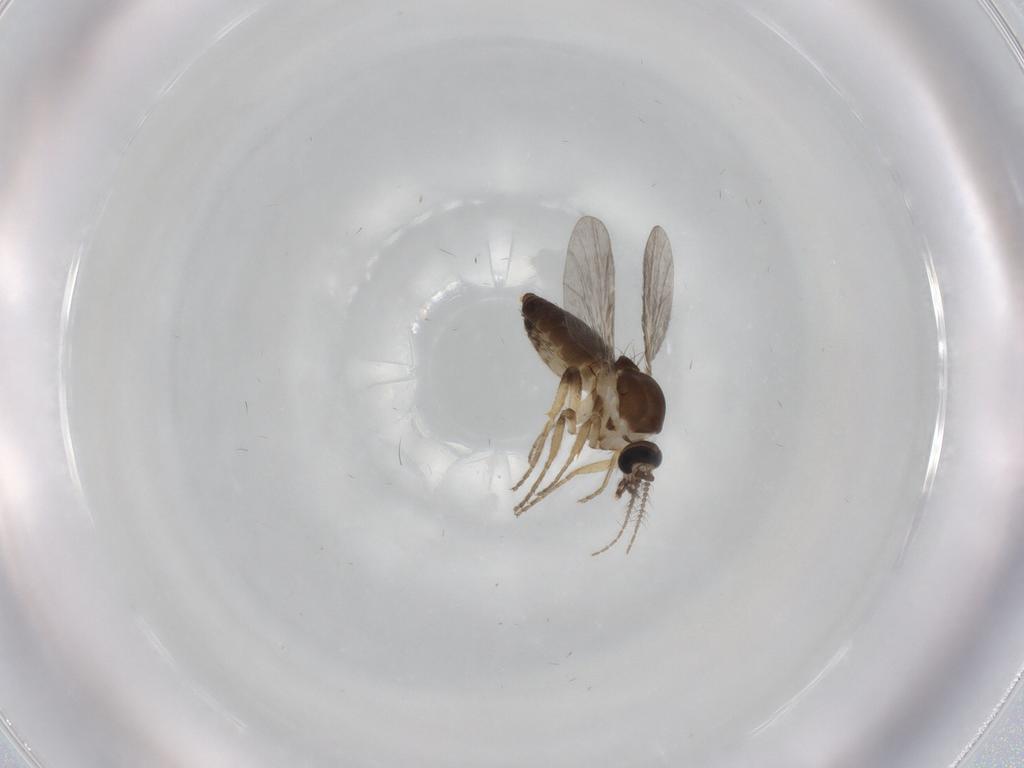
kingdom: Animalia
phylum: Arthropoda
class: Insecta
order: Diptera
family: Ceratopogonidae
